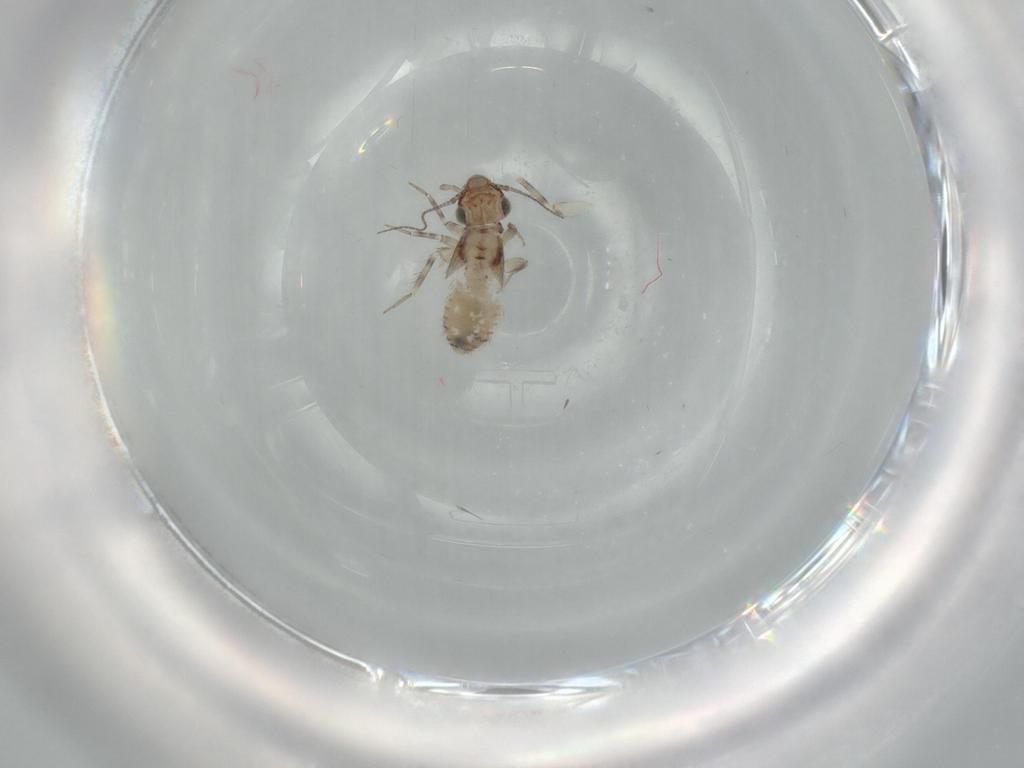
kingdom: Animalia
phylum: Arthropoda
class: Insecta
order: Psocodea
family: Lepidopsocidae
